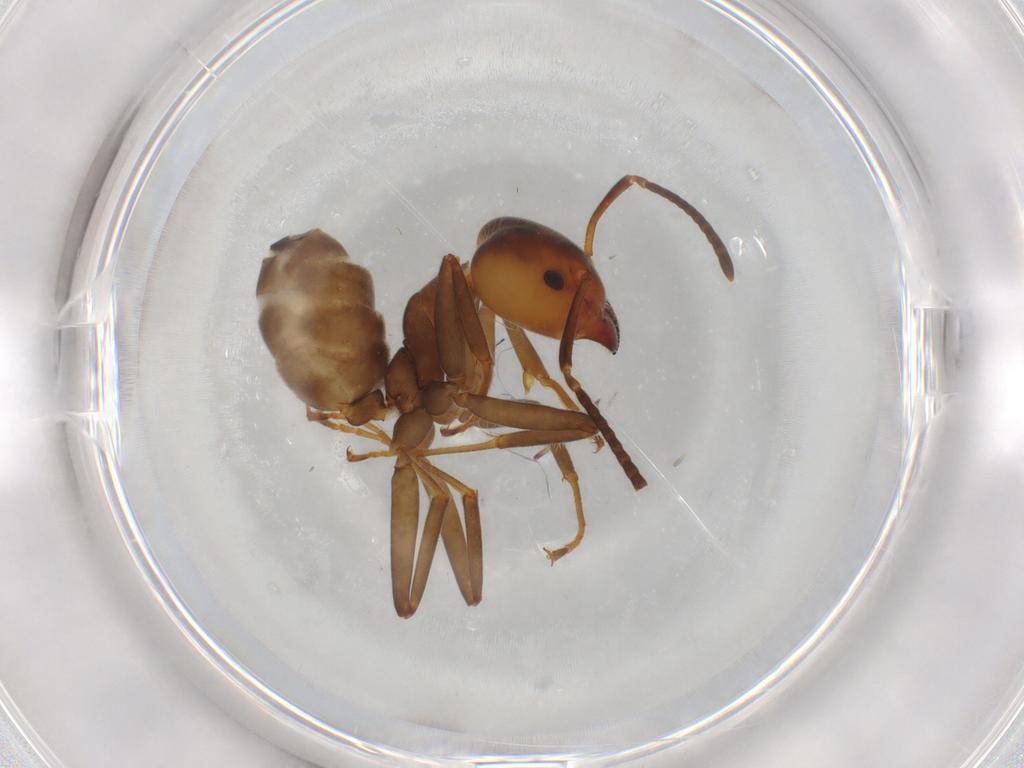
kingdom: Animalia
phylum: Arthropoda
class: Insecta
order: Hymenoptera
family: Formicidae
